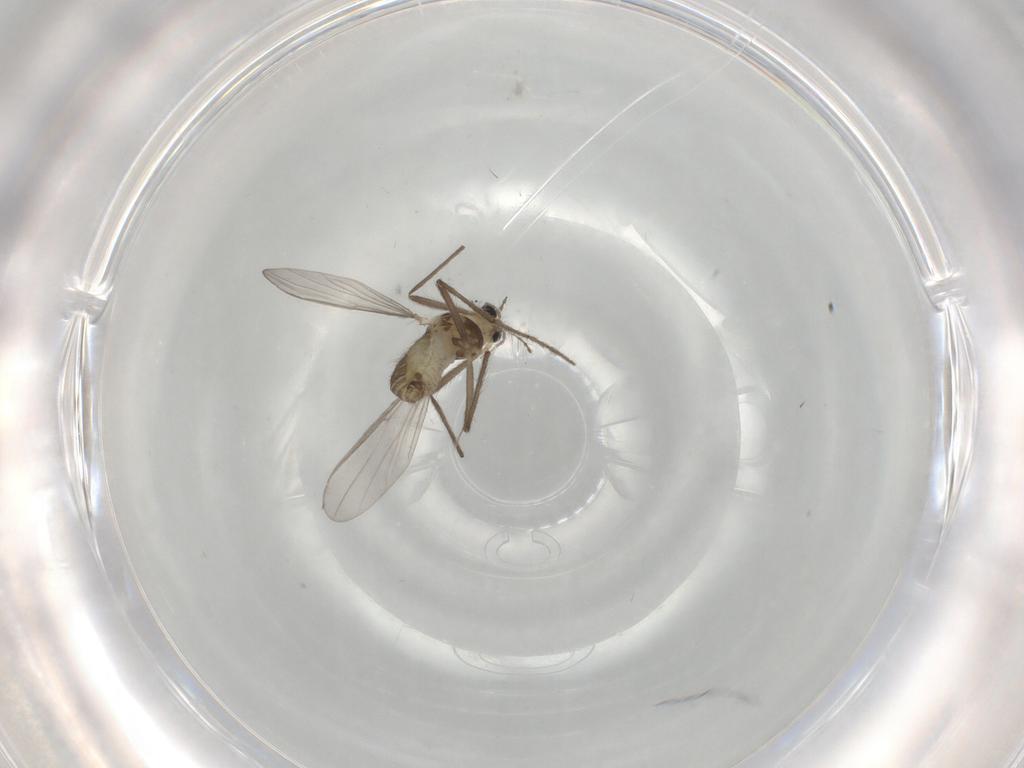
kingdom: Animalia
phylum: Arthropoda
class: Insecta
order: Diptera
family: Chironomidae
